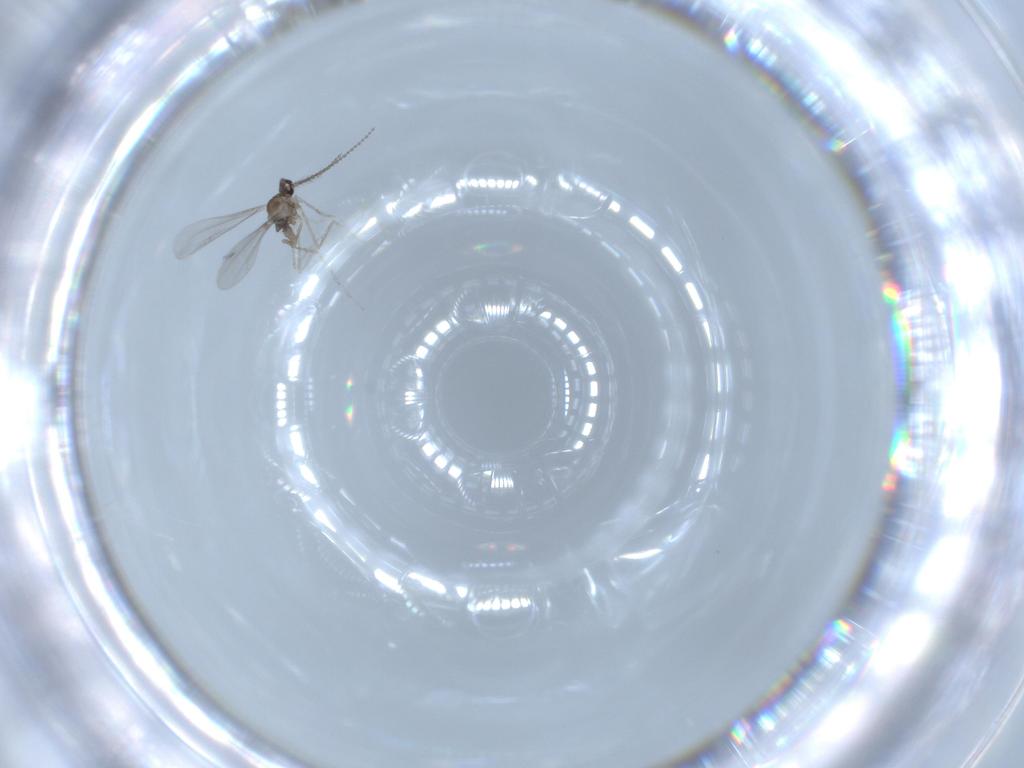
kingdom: Animalia
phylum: Arthropoda
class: Insecta
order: Diptera
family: Cecidomyiidae
